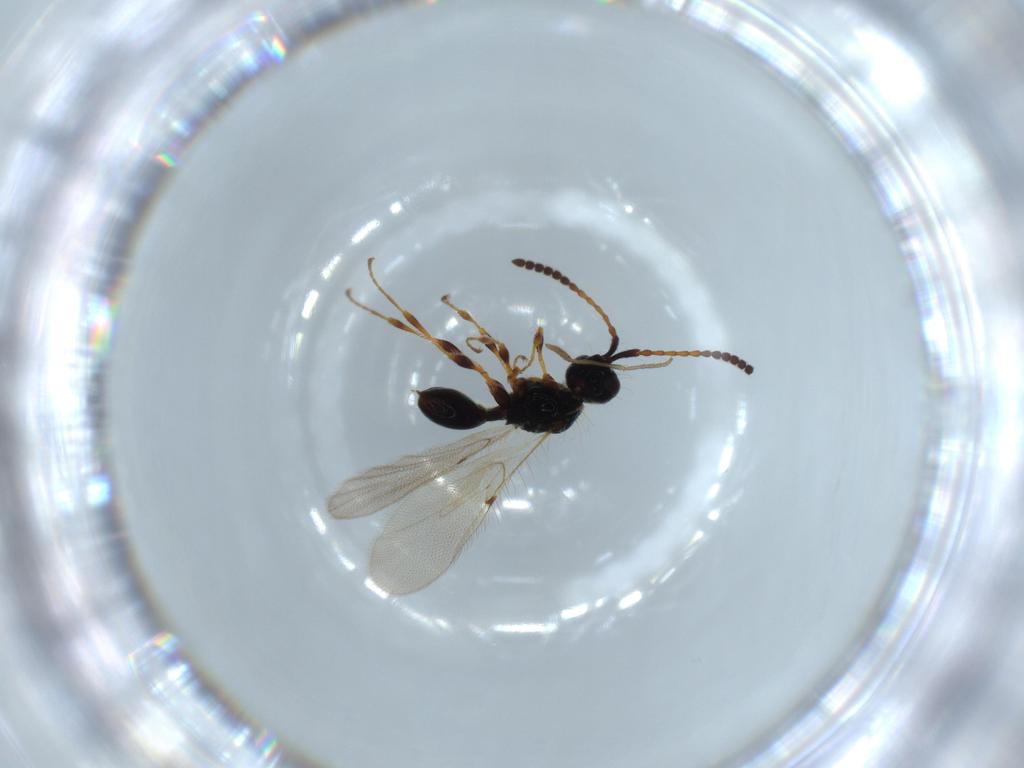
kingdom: Animalia
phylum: Arthropoda
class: Insecta
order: Hymenoptera
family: Diapriidae
